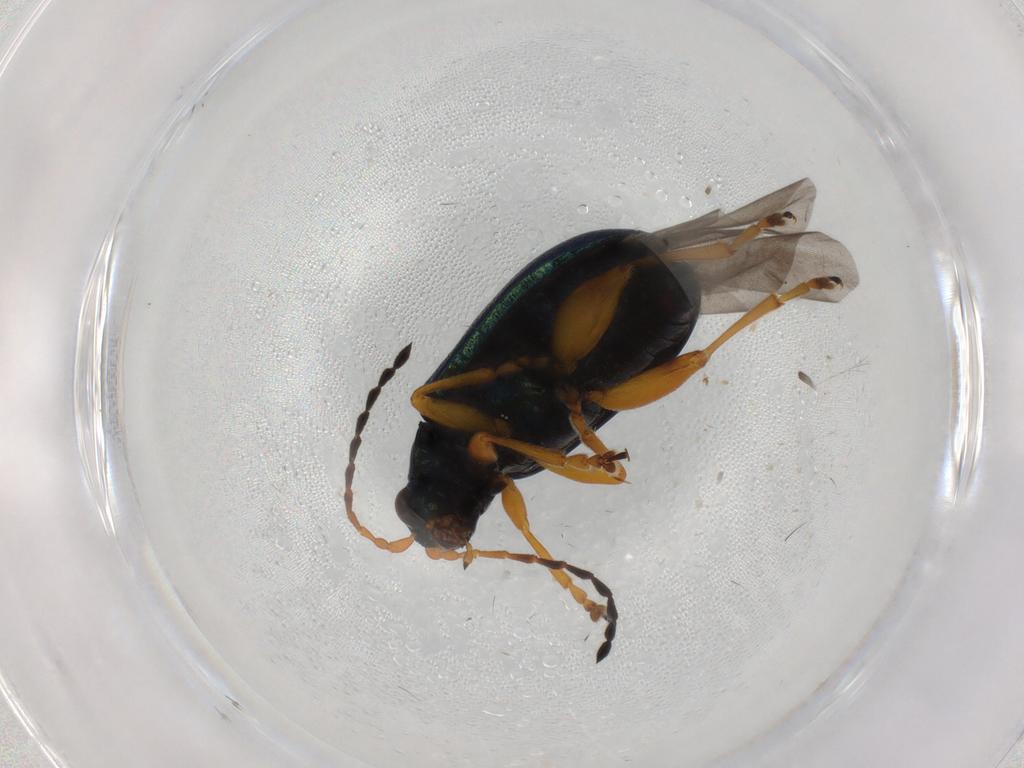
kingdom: Animalia
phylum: Arthropoda
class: Insecta
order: Coleoptera
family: Chrysomelidae
